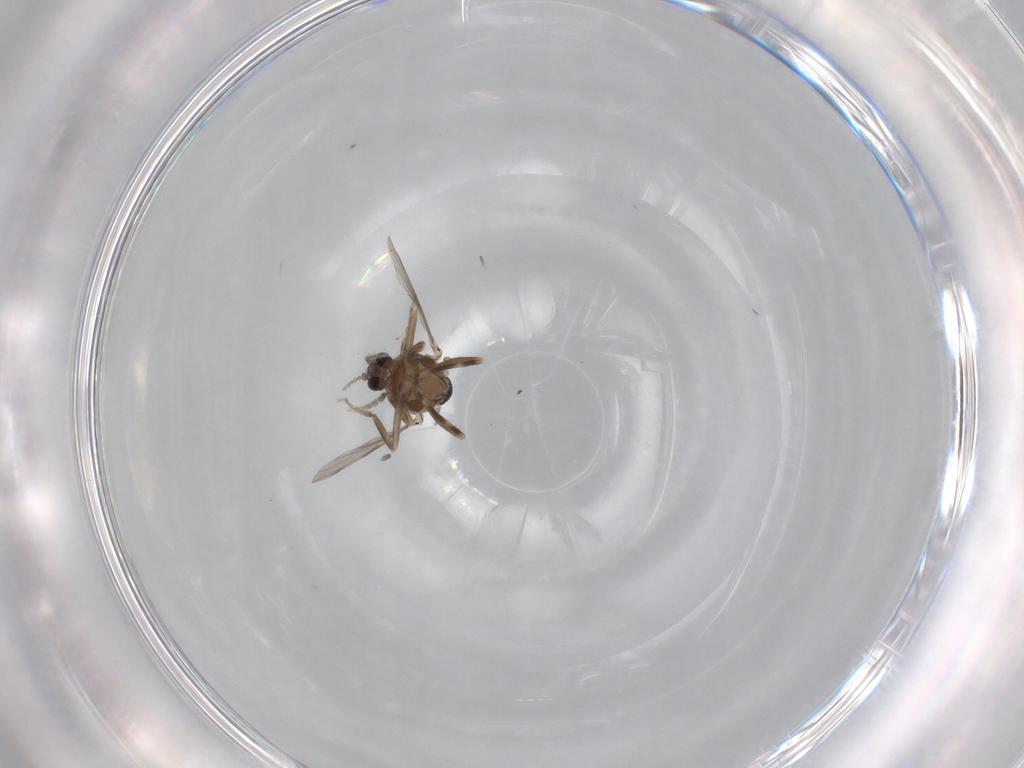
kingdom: Animalia
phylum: Arthropoda
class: Insecta
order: Diptera
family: Ceratopogonidae
